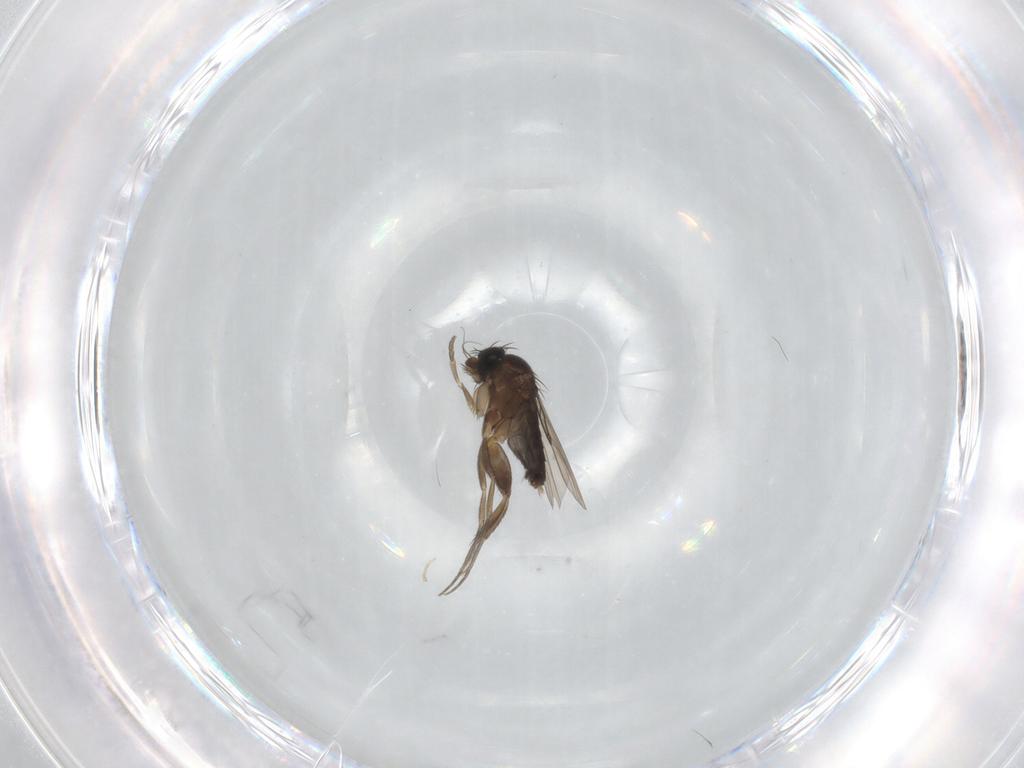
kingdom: Animalia
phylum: Arthropoda
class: Insecta
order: Diptera
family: Cecidomyiidae
